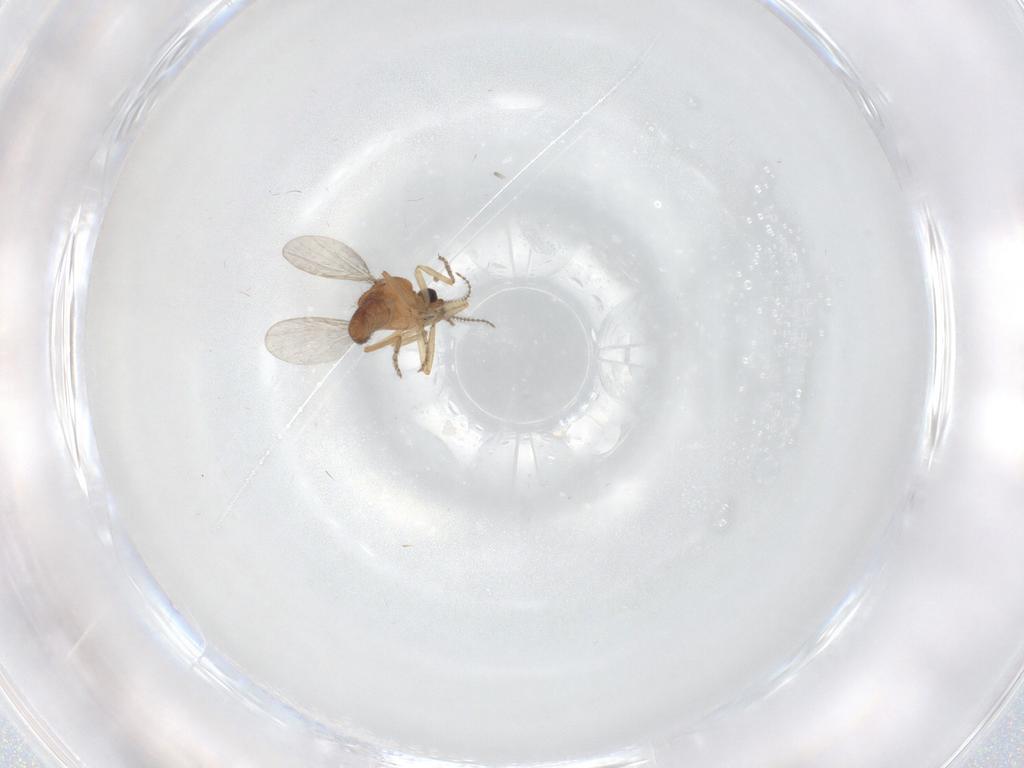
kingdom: Animalia
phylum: Arthropoda
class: Insecta
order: Diptera
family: Ceratopogonidae
